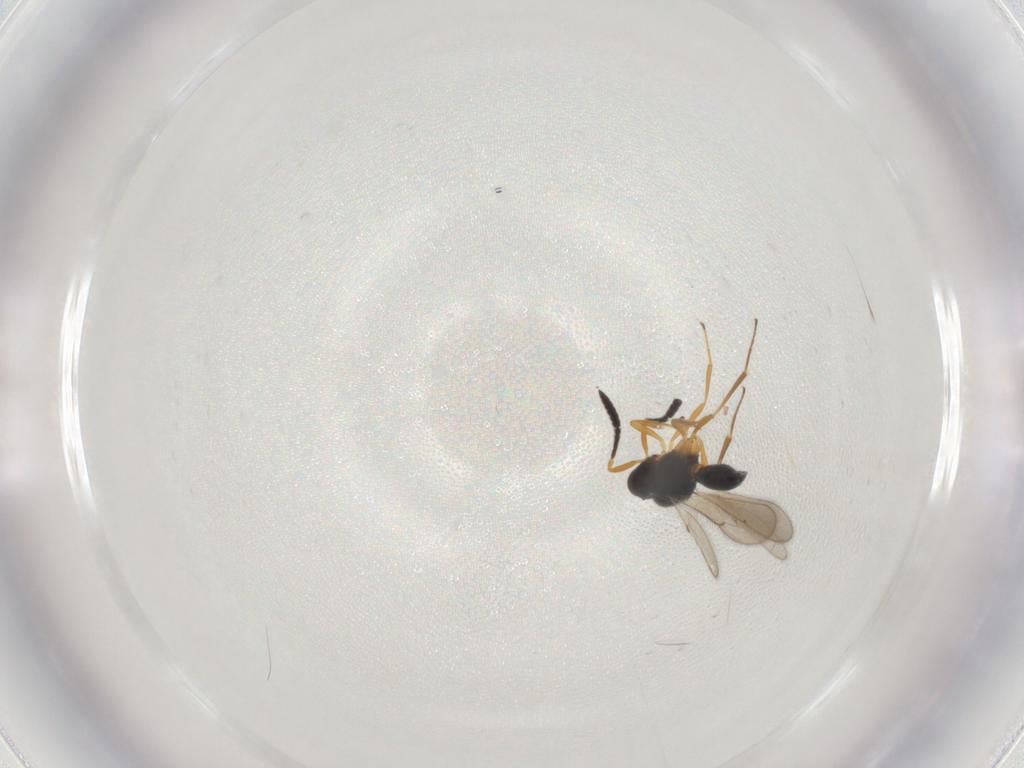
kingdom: Animalia
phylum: Arthropoda
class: Insecta
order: Hymenoptera
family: Scelionidae
